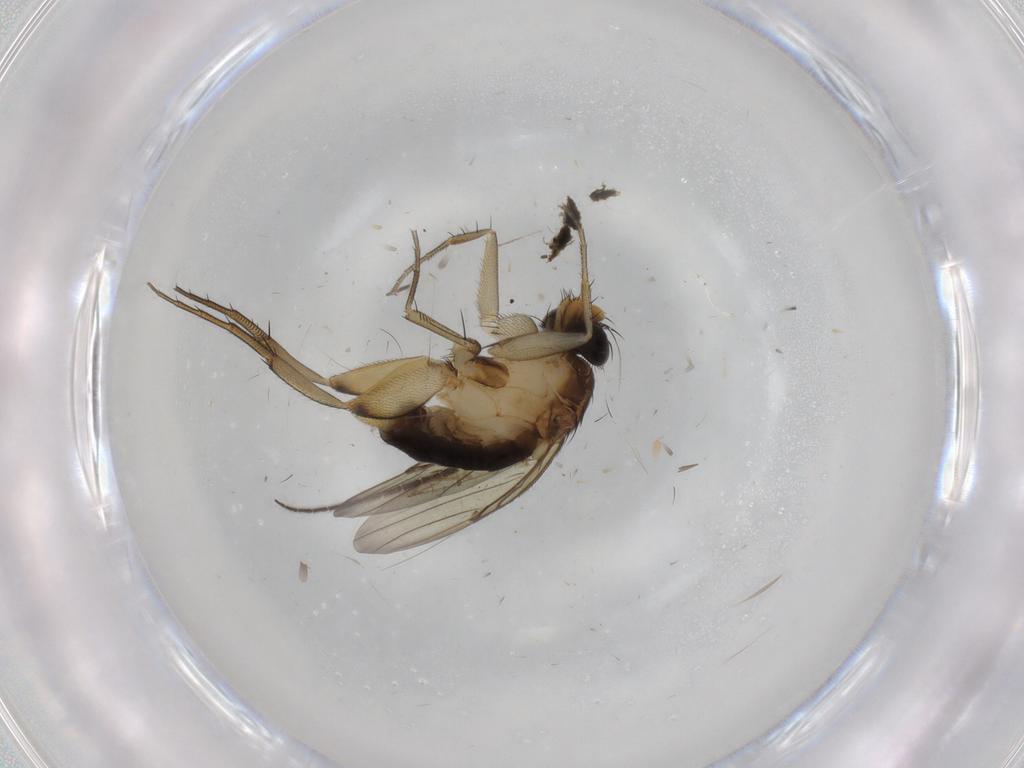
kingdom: Animalia
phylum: Arthropoda
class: Insecta
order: Diptera
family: Phoridae
